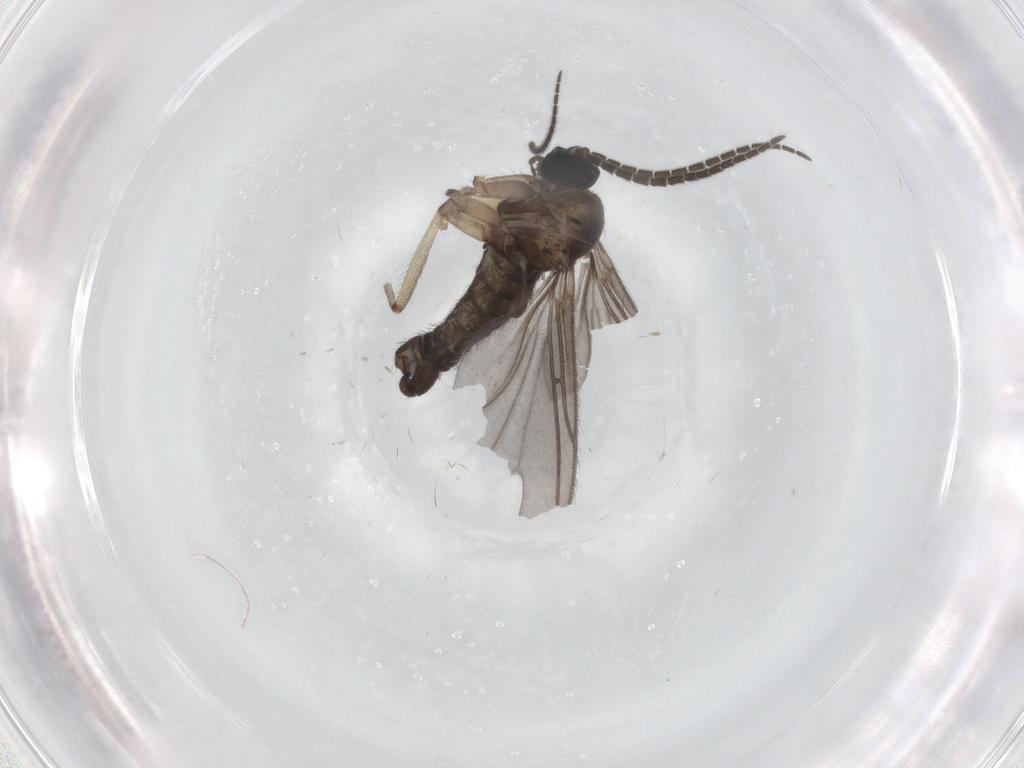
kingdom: Animalia
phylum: Arthropoda
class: Insecta
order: Diptera
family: Sciaridae
